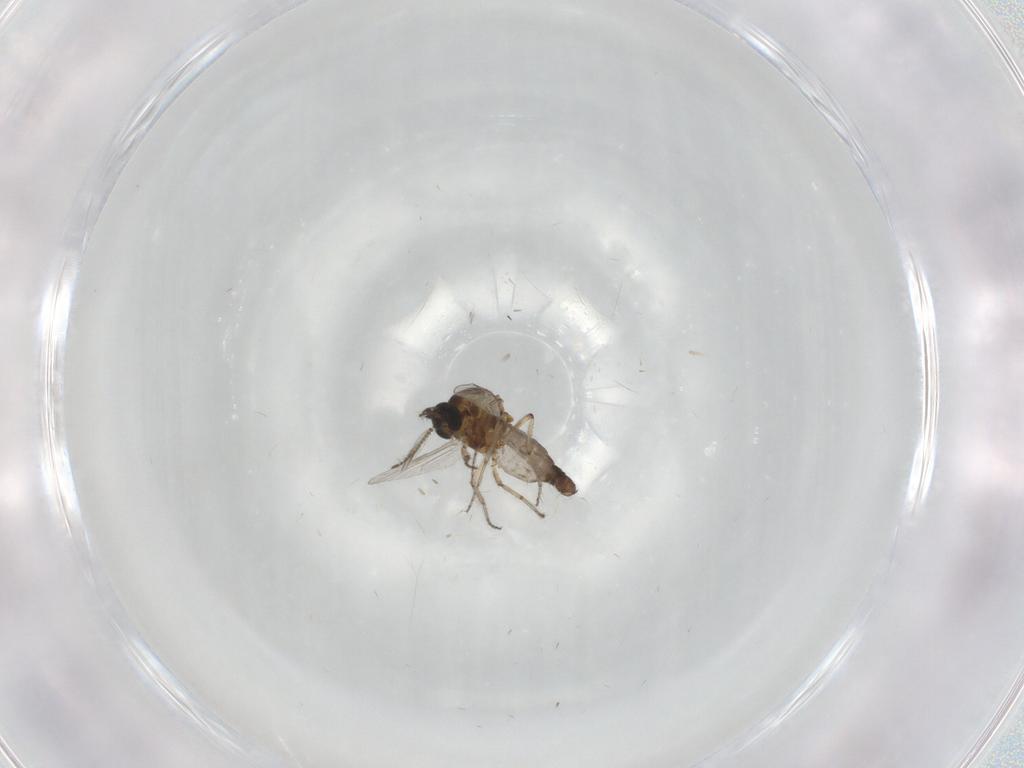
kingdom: Animalia
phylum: Arthropoda
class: Insecta
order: Diptera
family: Ceratopogonidae
